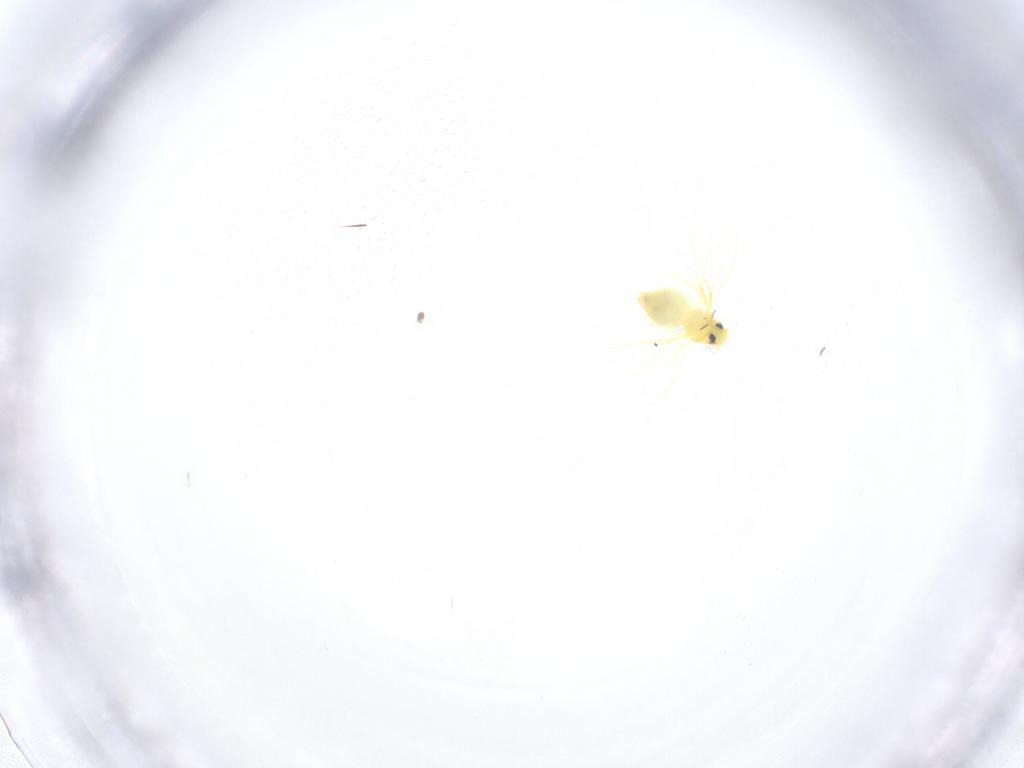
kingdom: Animalia
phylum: Arthropoda
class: Insecta
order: Hemiptera
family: Aleyrodidae
